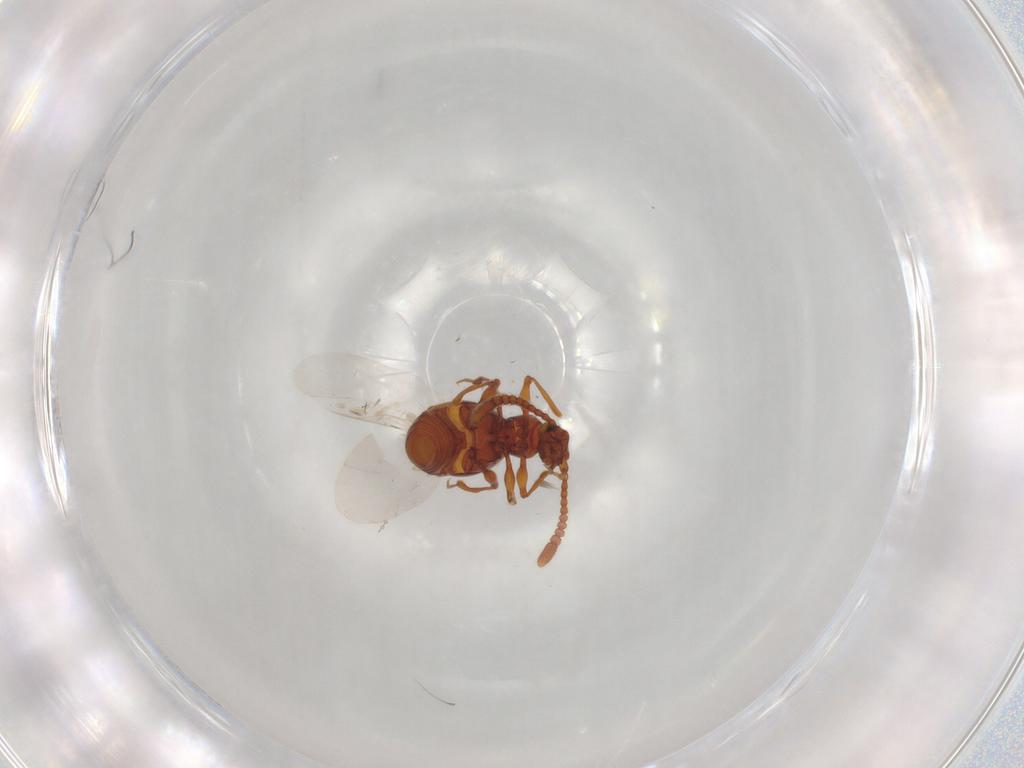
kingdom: Animalia
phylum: Arthropoda
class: Insecta
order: Coleoptera
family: Staphylinidae
